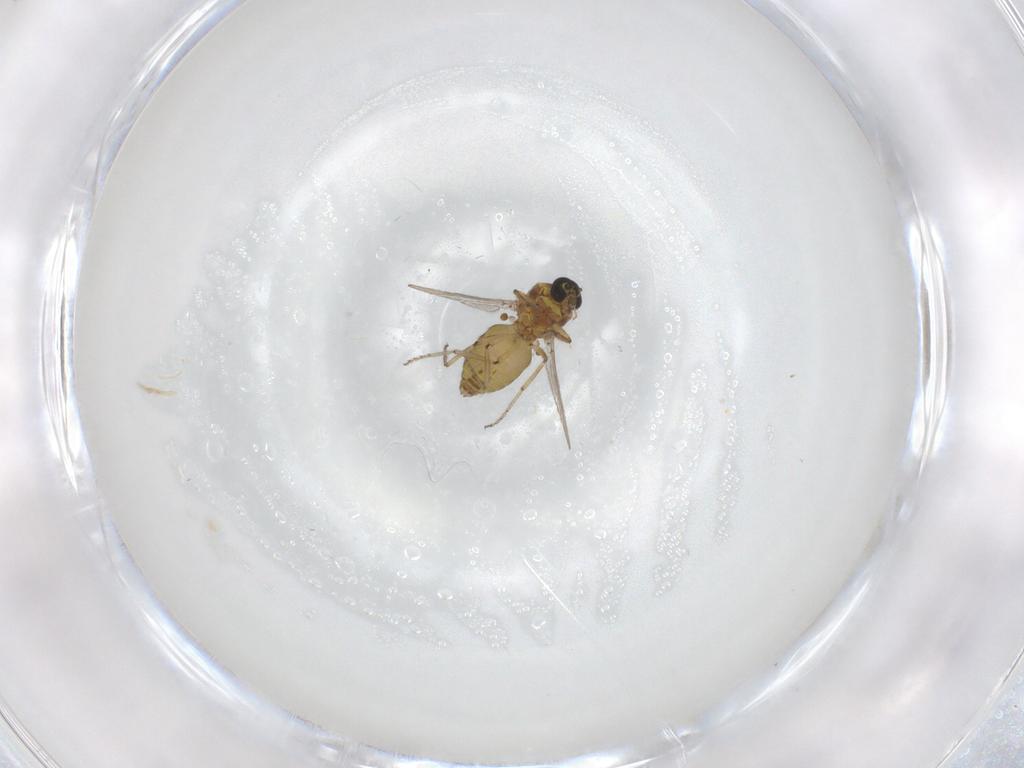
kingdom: Animalia
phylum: Arthropoda
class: Insecta
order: Diptera
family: Ceratopogonidae
